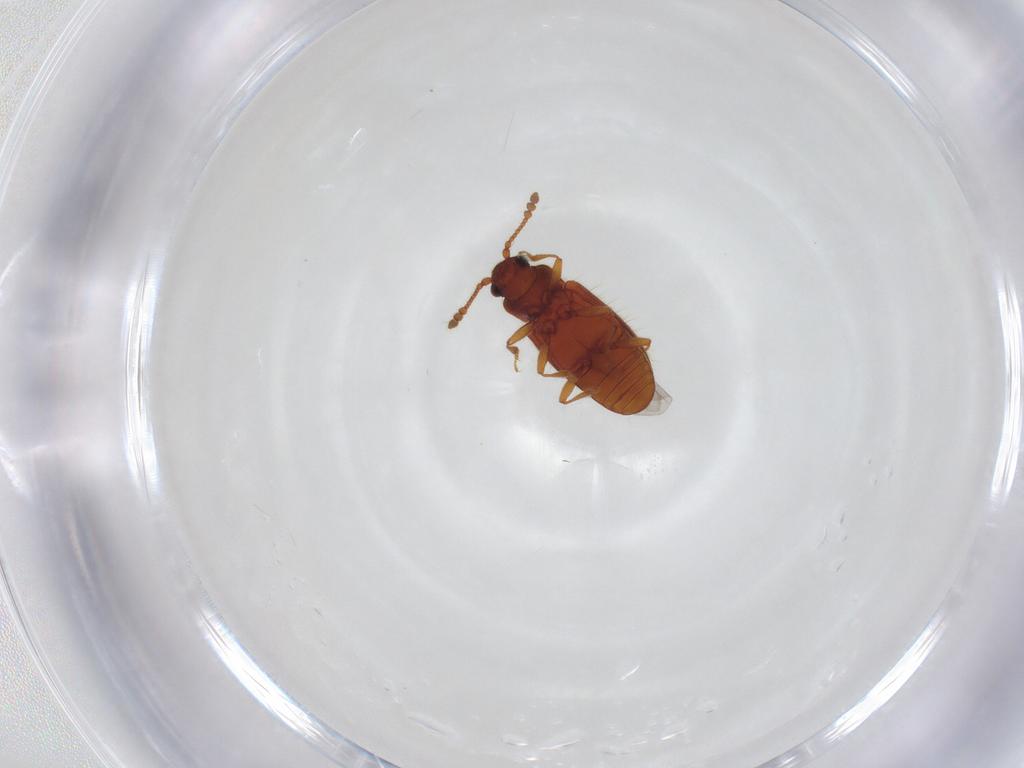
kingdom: Animalia
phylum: Arthropoda
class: Insecta
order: Coleoptera
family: Cryptophagidae
